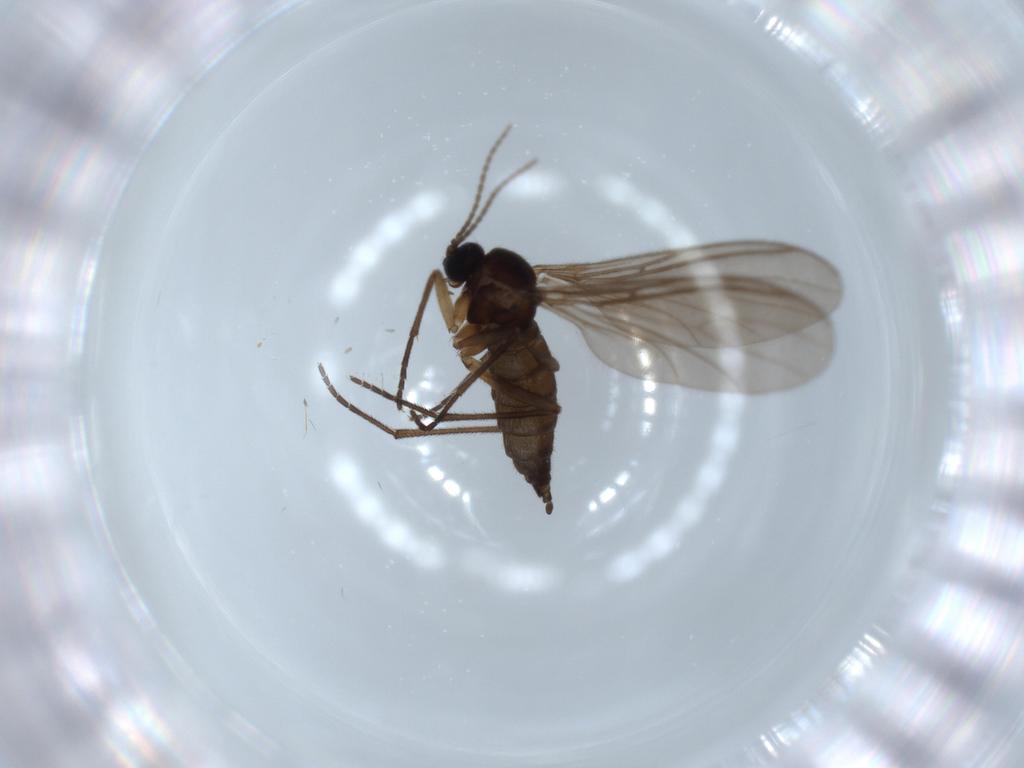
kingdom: Animalia
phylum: Arthropoda
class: Insecta
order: Diptera
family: Sciaridae
